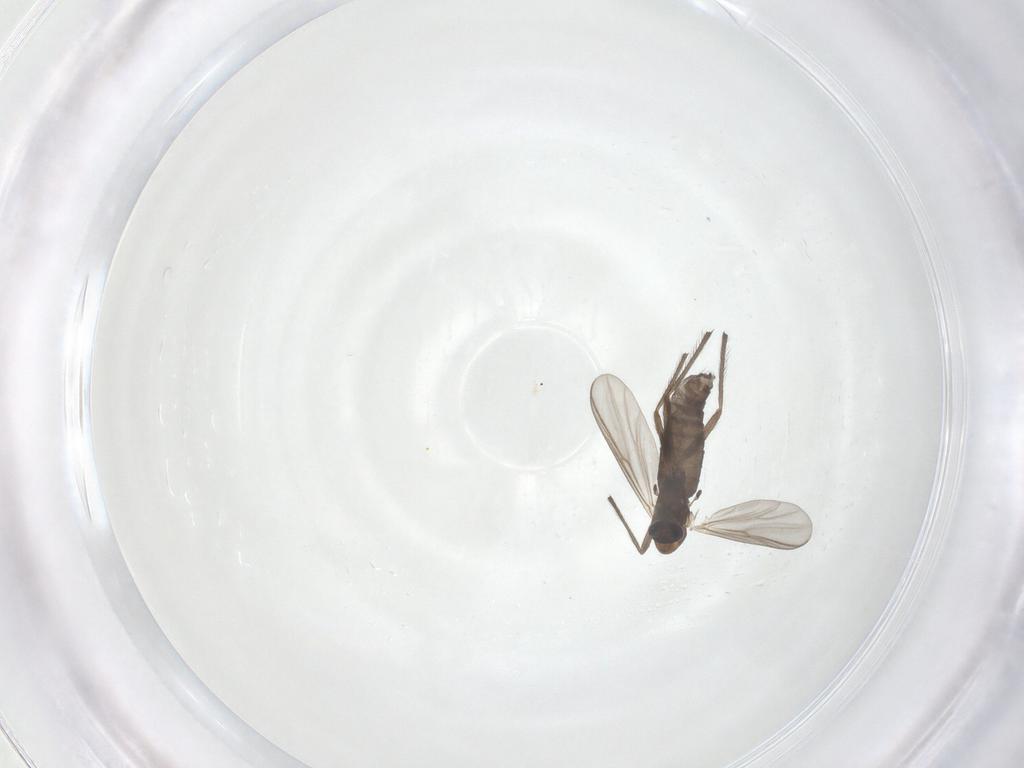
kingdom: Animalia
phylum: Arthropoda
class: Insecta
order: Diptera
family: Chironomidae
